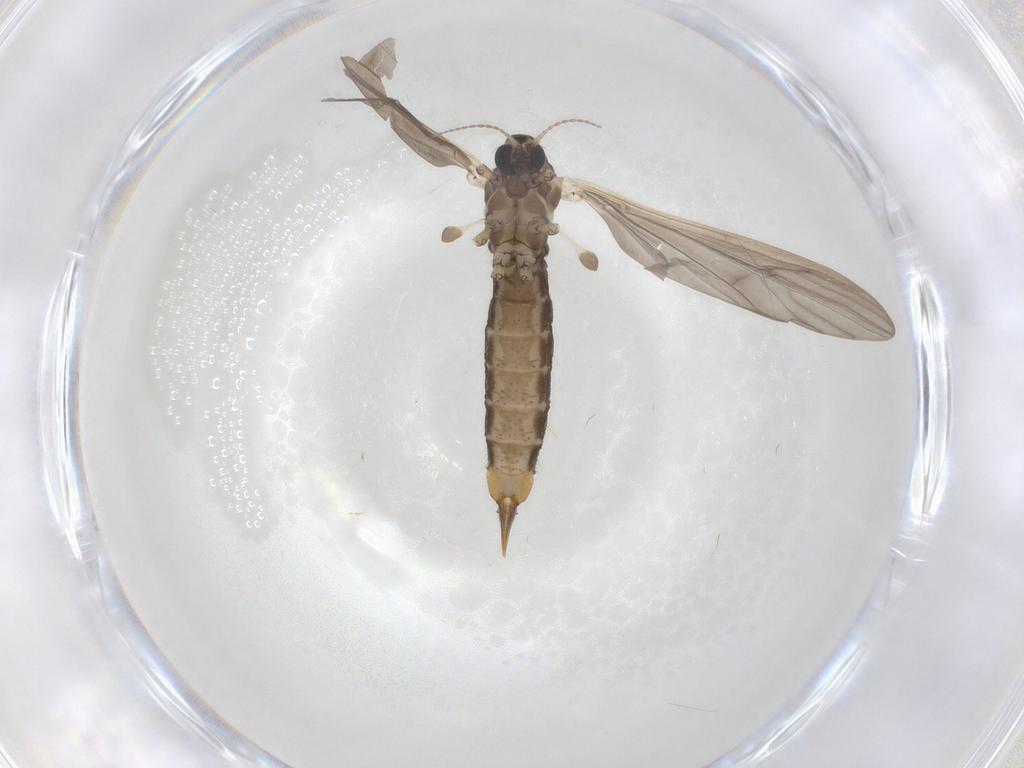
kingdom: Animalia
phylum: Arthropoda
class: Insecta
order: Diptera
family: Limoniidae
